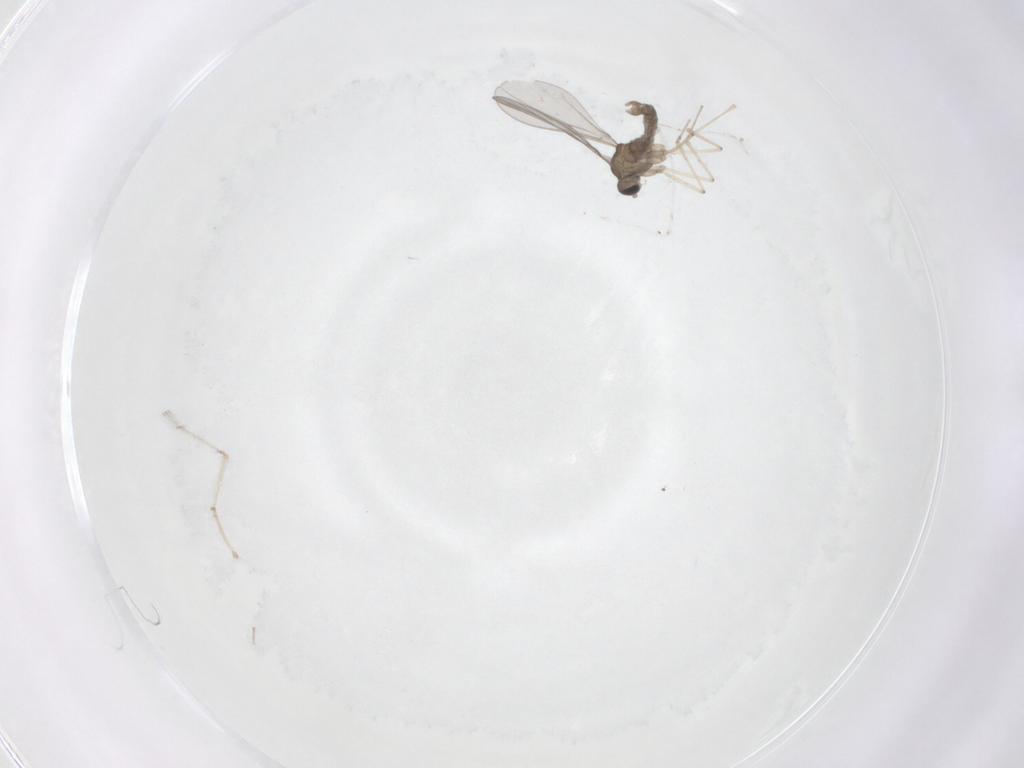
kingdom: Animalia
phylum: Arthropoda
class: Insecta
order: Diptera
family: Cecidomyiidae
